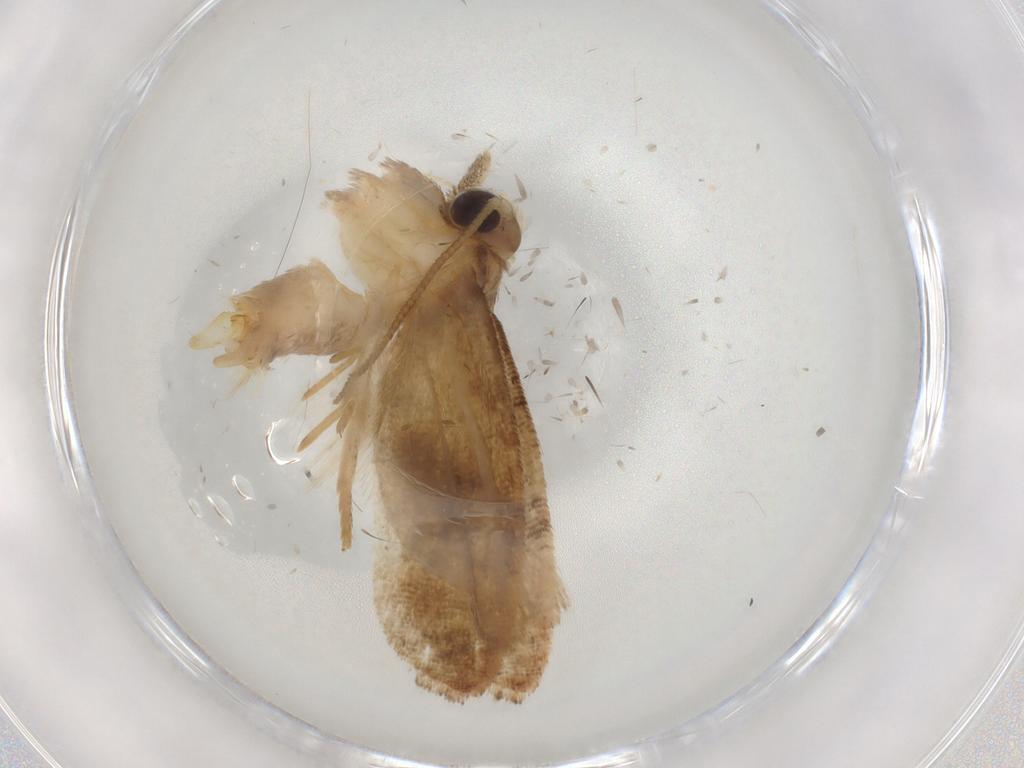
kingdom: Animalia
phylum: Arthropoda
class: Insecta
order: Lepidoptera
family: Tortricidae
